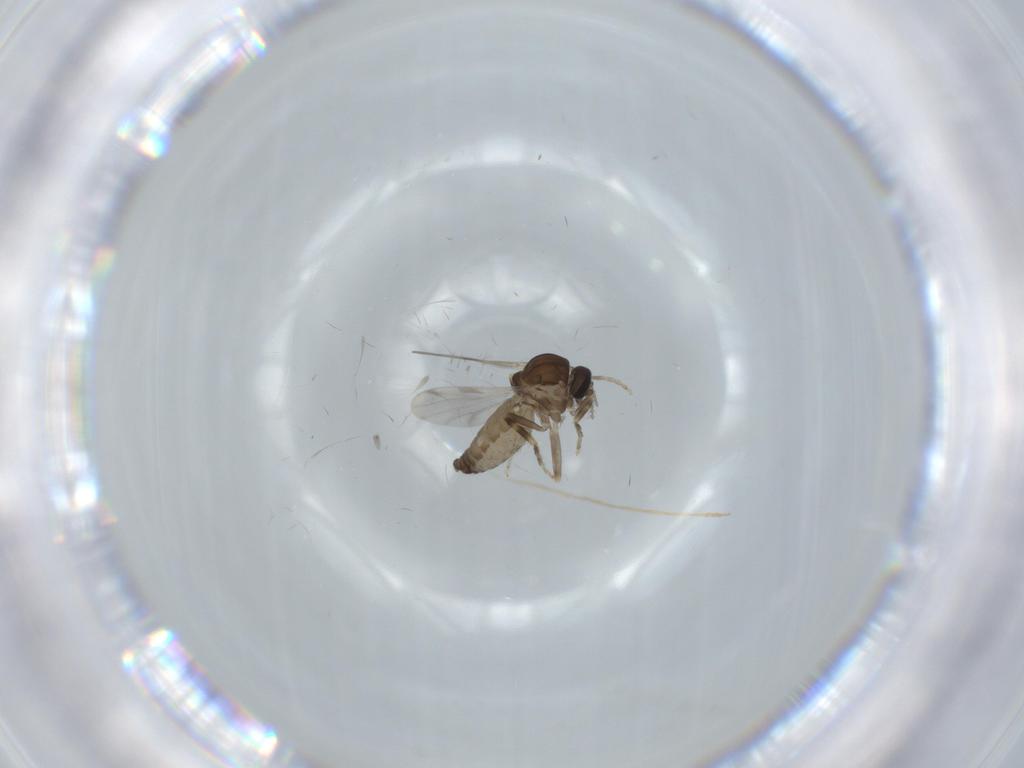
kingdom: Animalia
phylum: Arthropoda
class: Insecta
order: Diptera
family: Ceratopogonidae
